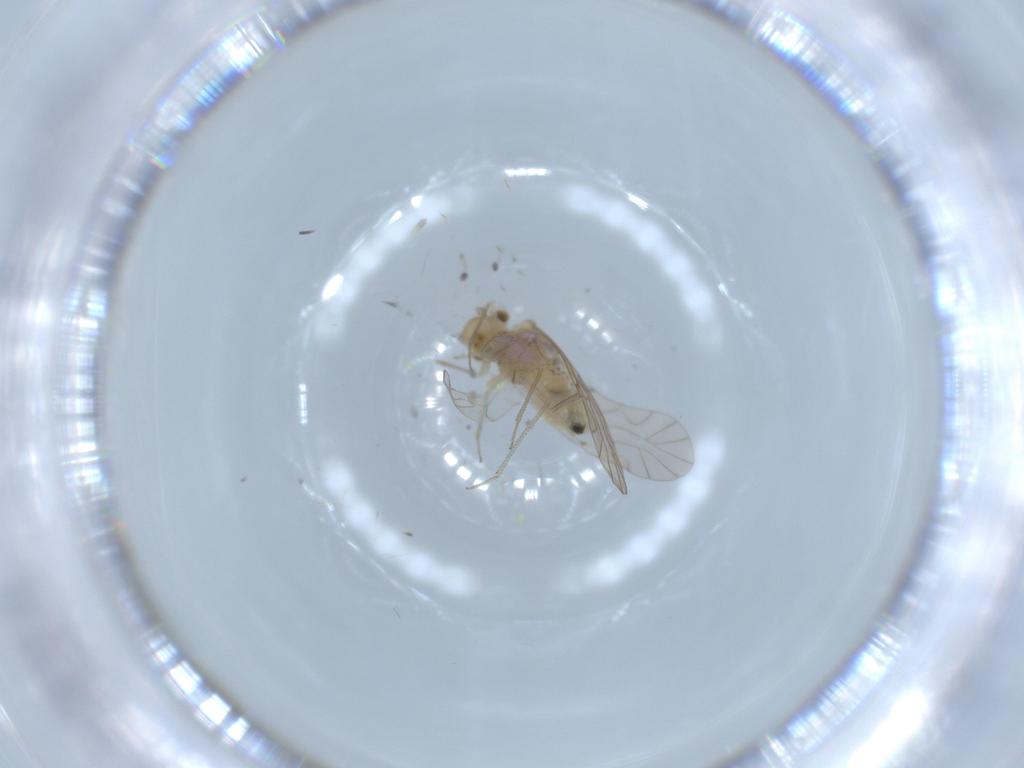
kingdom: Animalia
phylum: Arthropoda
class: Insecta
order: Psocodea
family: Lachesillidae
